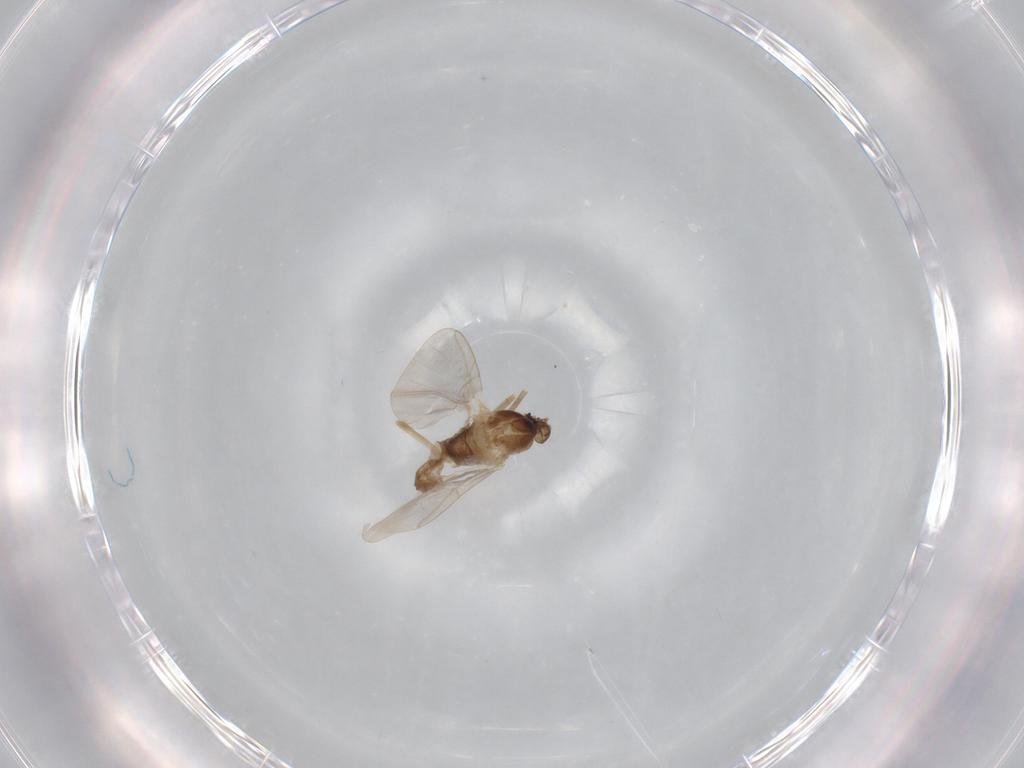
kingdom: Animalia
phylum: Arthropoda
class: Insecta
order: Diptera
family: Cecidomyiidae
